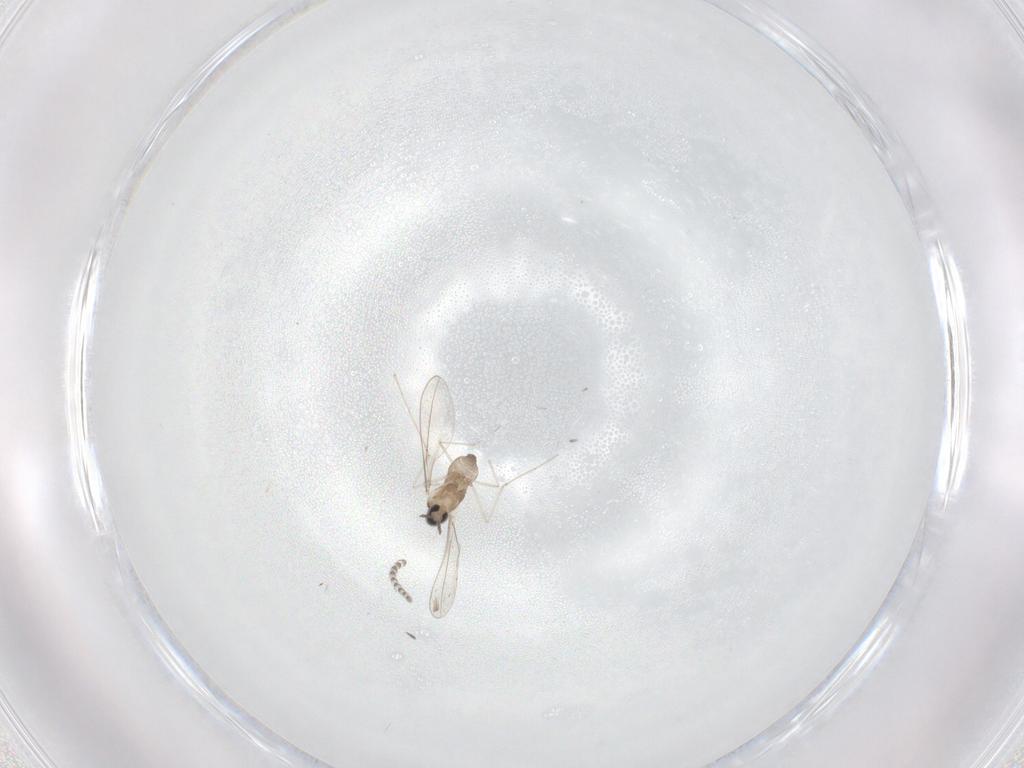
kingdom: Animalia
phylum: Arthropoda
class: Insecta
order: Diptera
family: Cecidomyiidae
